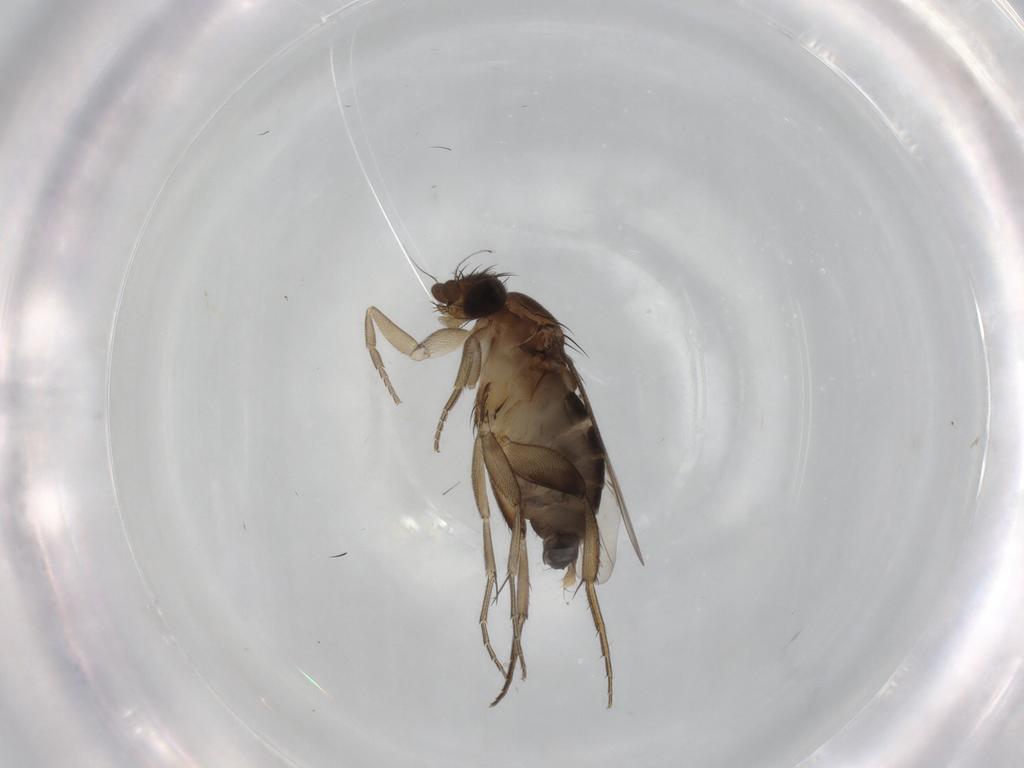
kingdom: Animalia
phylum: Arthropoda
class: Insecta
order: Diptera
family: Phoridae
